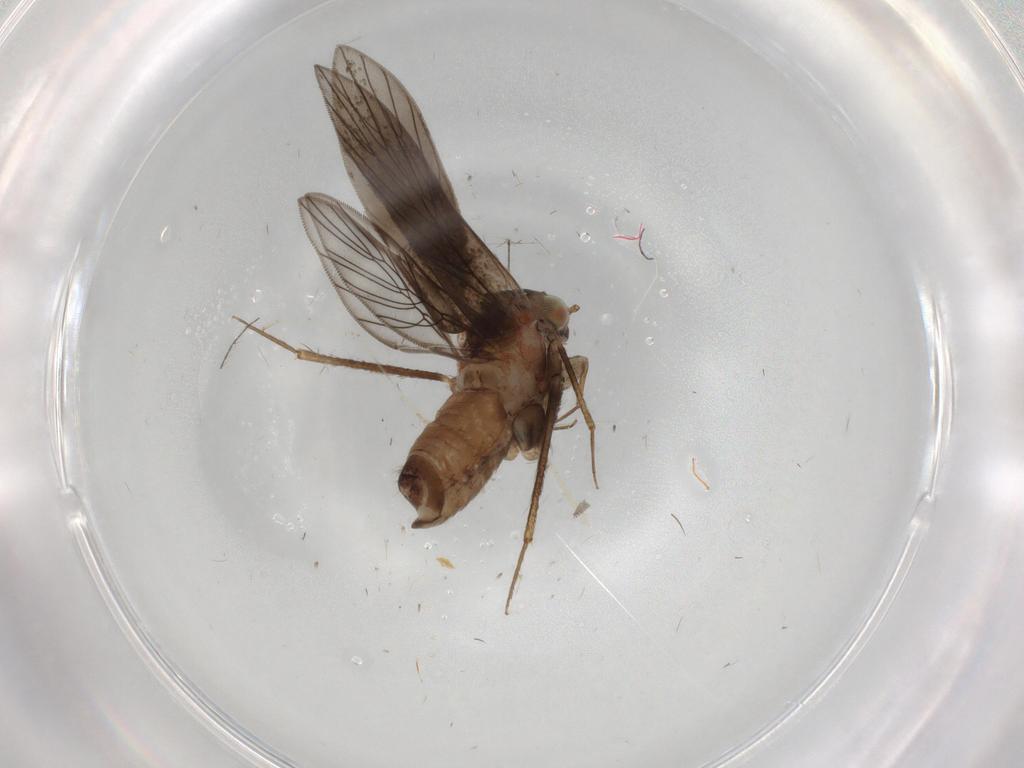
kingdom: Animalia
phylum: Arthropoda
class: Insecta
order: Psocodea
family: Lepidopsocidae
